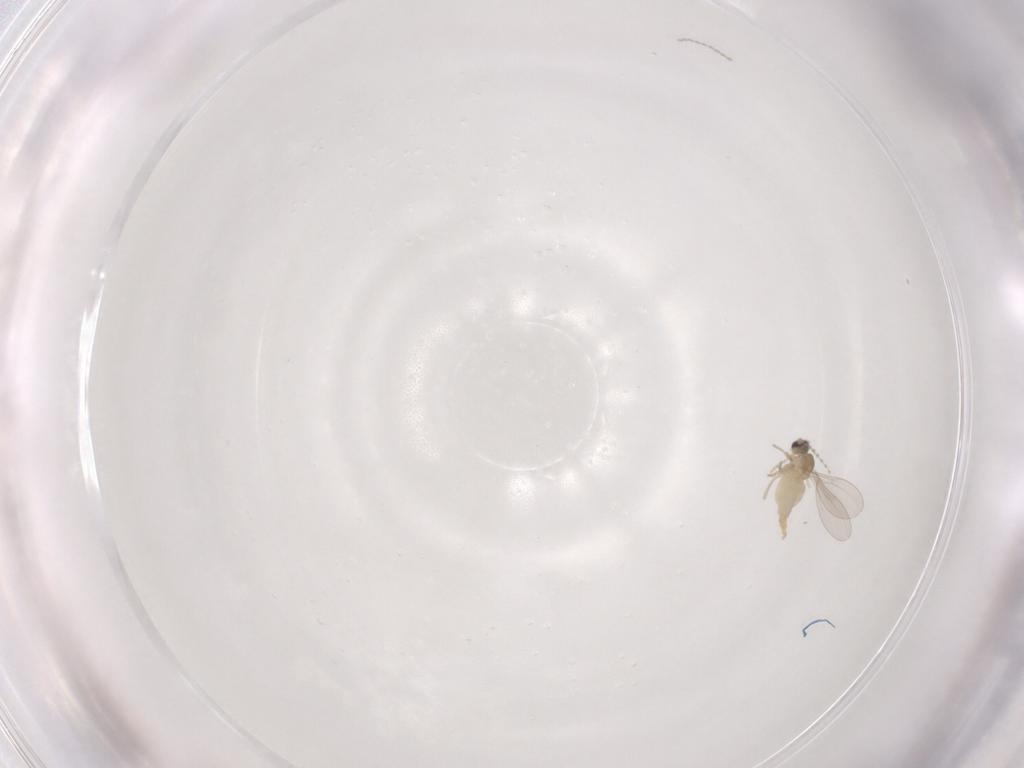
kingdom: Animalia
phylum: Arthropoda
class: Insecta
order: Diptera
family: Cecidomyiidae
